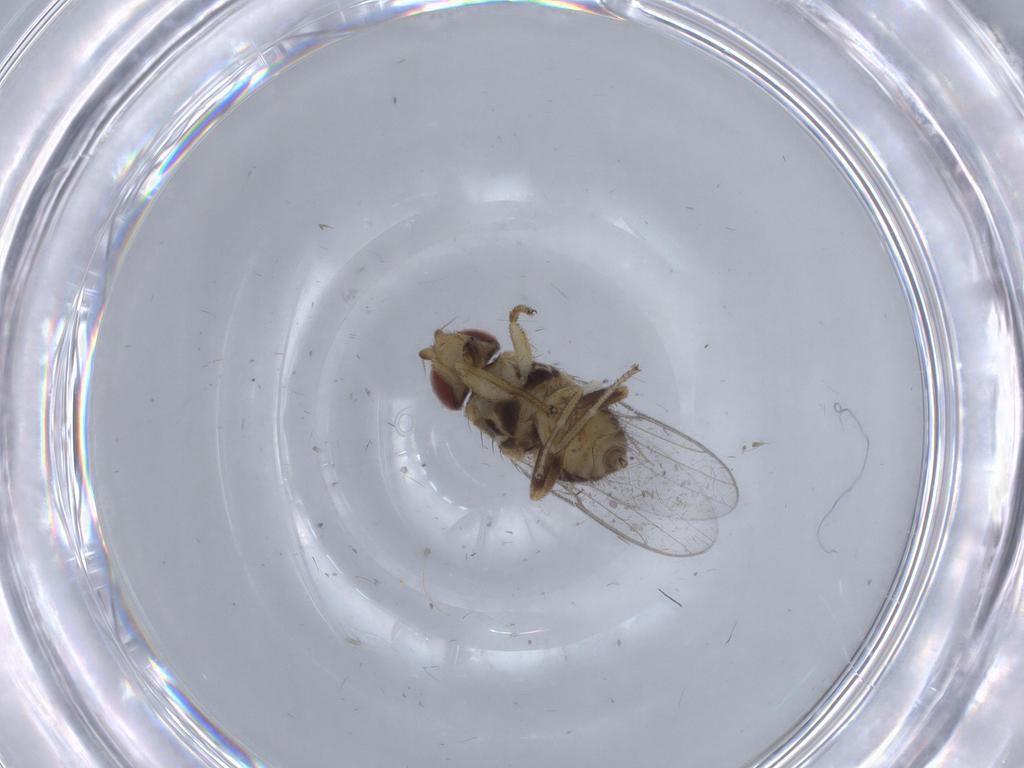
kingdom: Animalia
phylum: Arthropoda
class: Insecta
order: Diptera
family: Chloropidae
